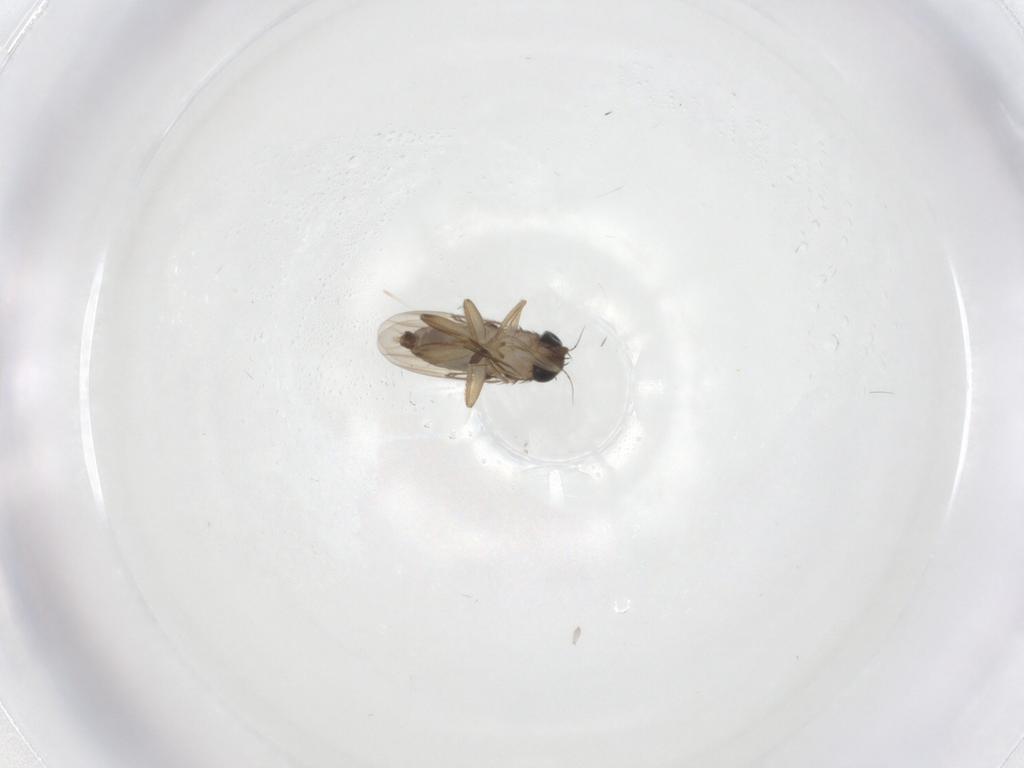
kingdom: Animalia
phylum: Arthropoda
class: Insecta
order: Diptera
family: Phoridae
